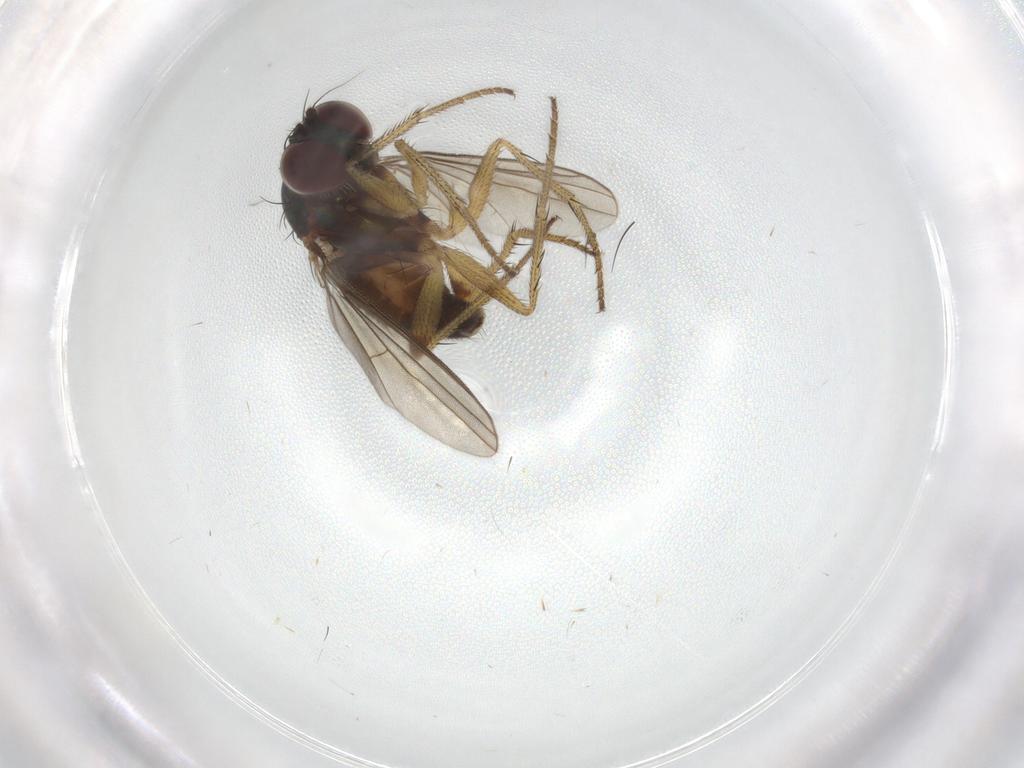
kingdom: Animalia
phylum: Arthropoda
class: Insecta
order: Diptera
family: Dolichopodidae
